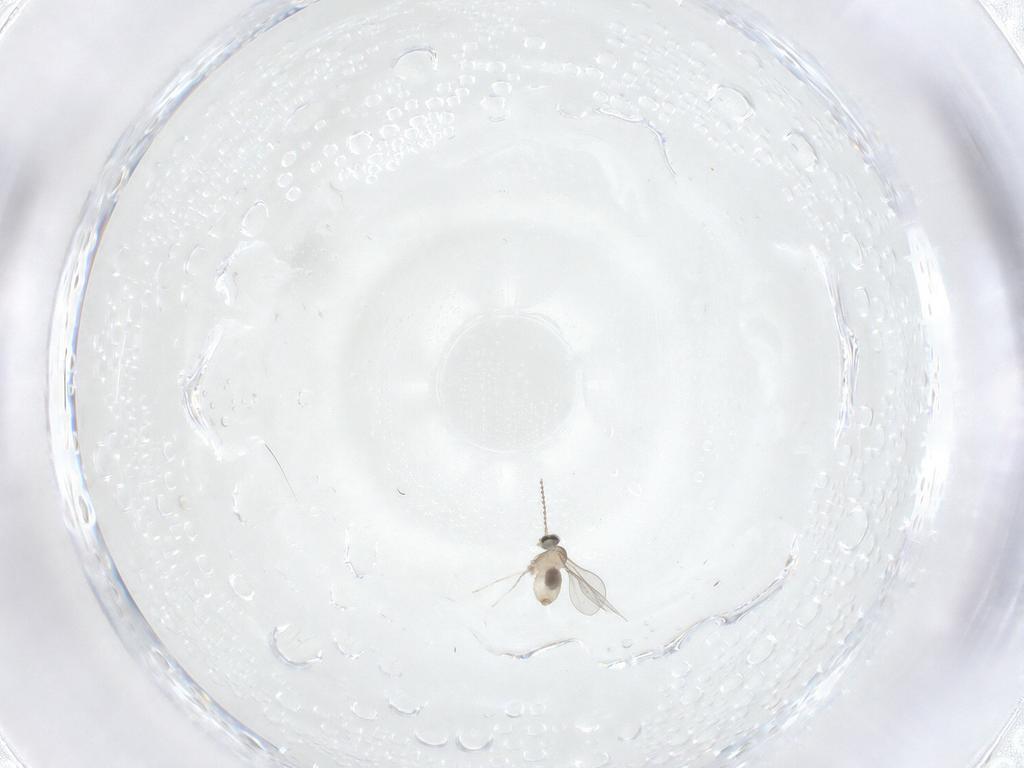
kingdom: Animalia
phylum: Arthropoda
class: Insecta
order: Diptera
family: Cecidomyiidae
